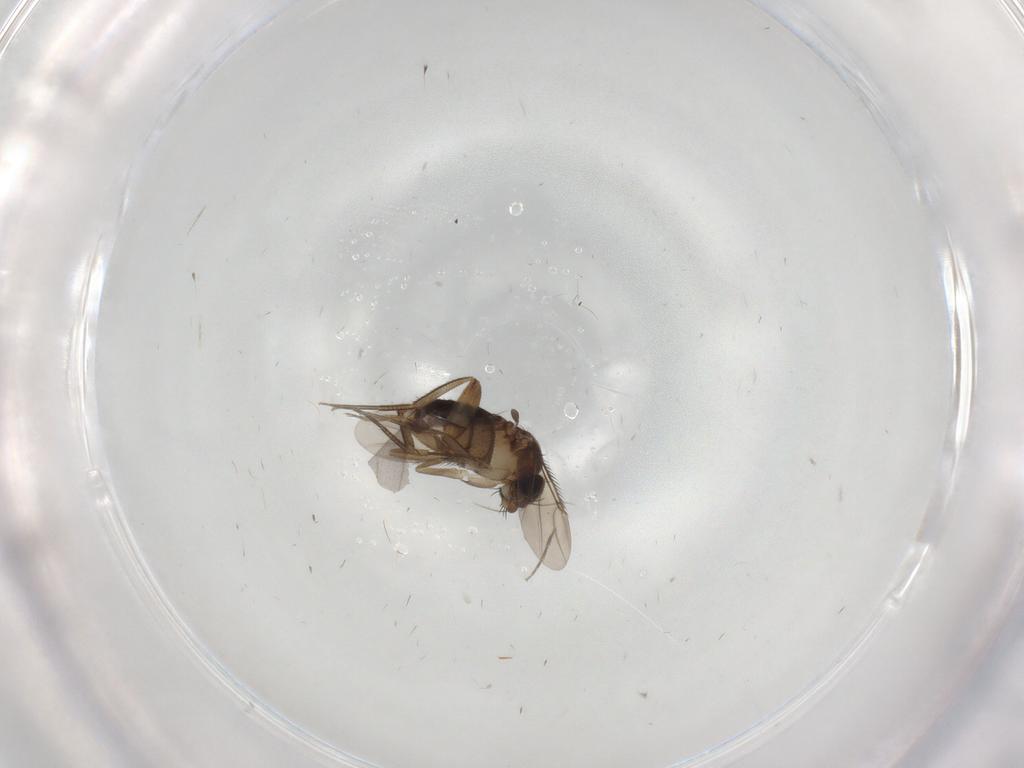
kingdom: Animalia
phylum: Arthropoda
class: Insecta
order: Diptera
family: Phoridae
